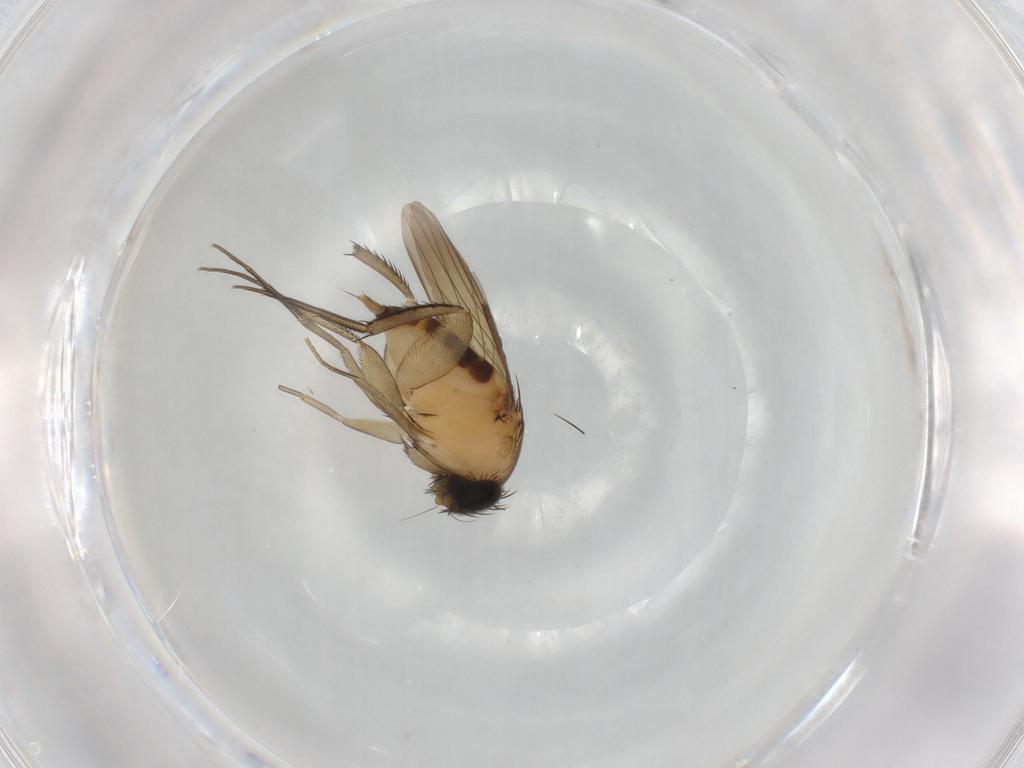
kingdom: Animalia
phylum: Arthropoda
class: Insecta
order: Diptera
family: Phoridae
